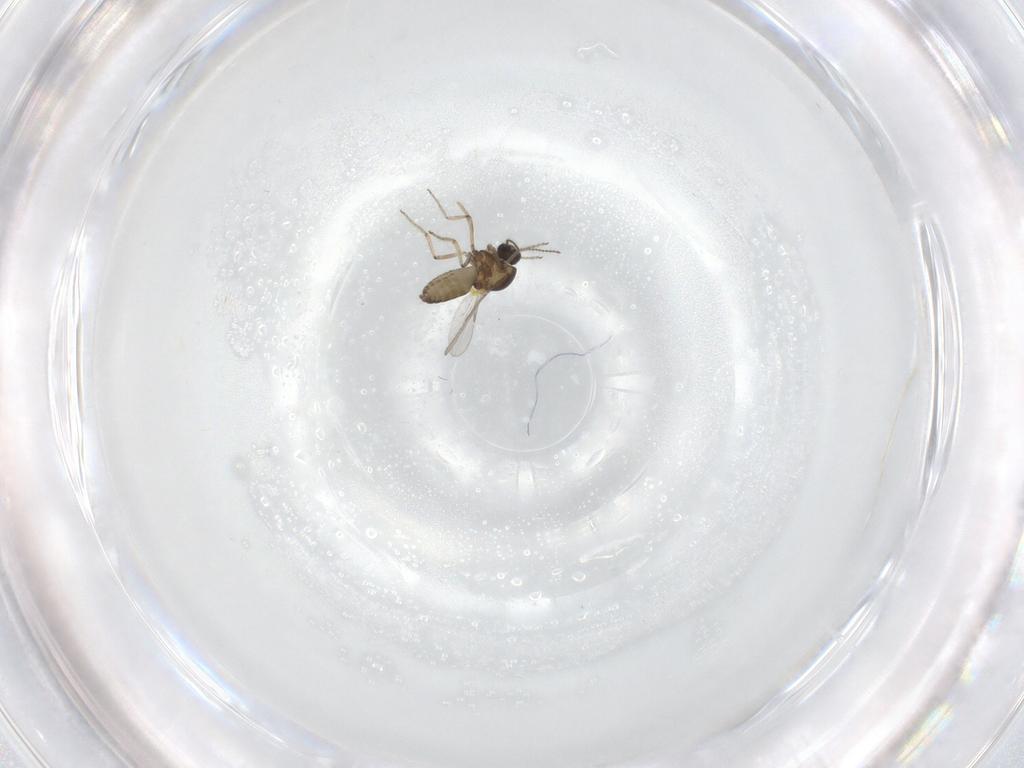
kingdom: Animalia
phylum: Arthropoda
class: Insecta
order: Diptera
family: Ceratopogonidae
